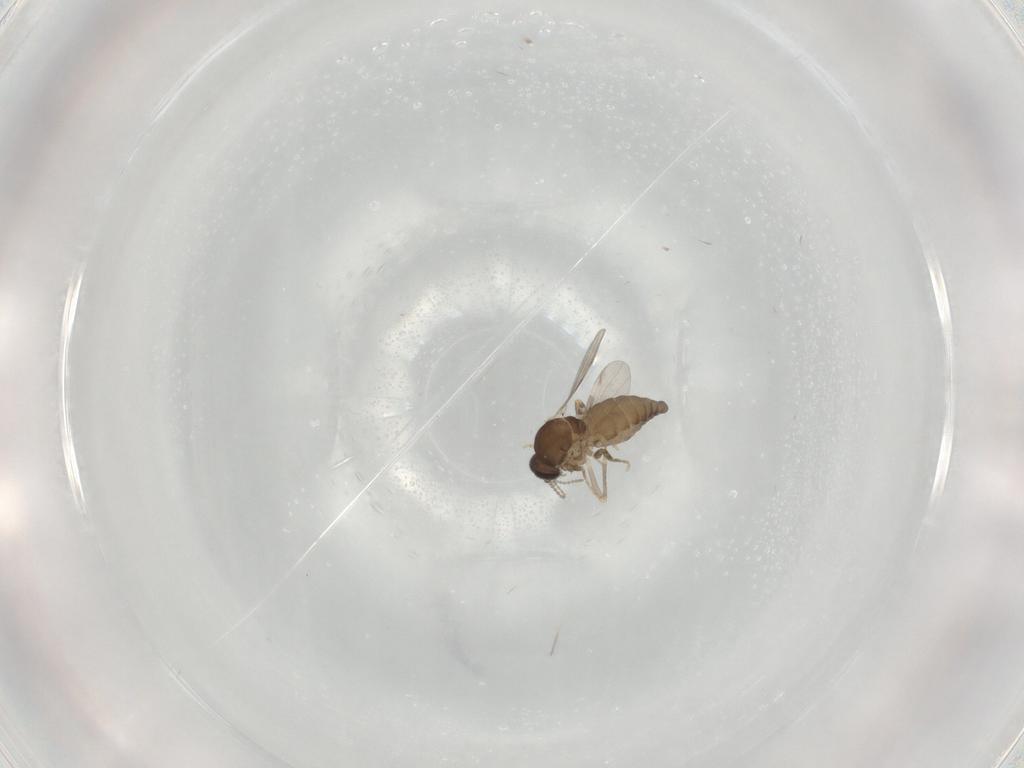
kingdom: Animalia
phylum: Arthropoda
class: Insecta
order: Diptera
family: Ceratopogonidae
